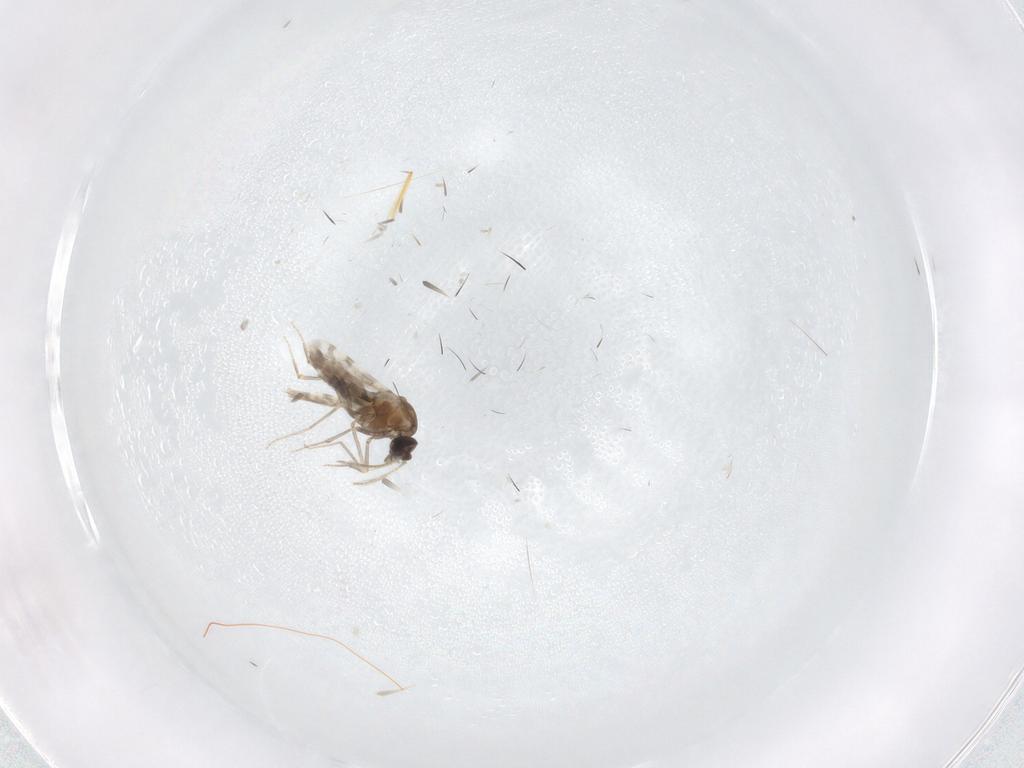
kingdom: Animalia
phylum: Arthropoda
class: Insecta
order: Diptera
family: Ceratopogonidae
